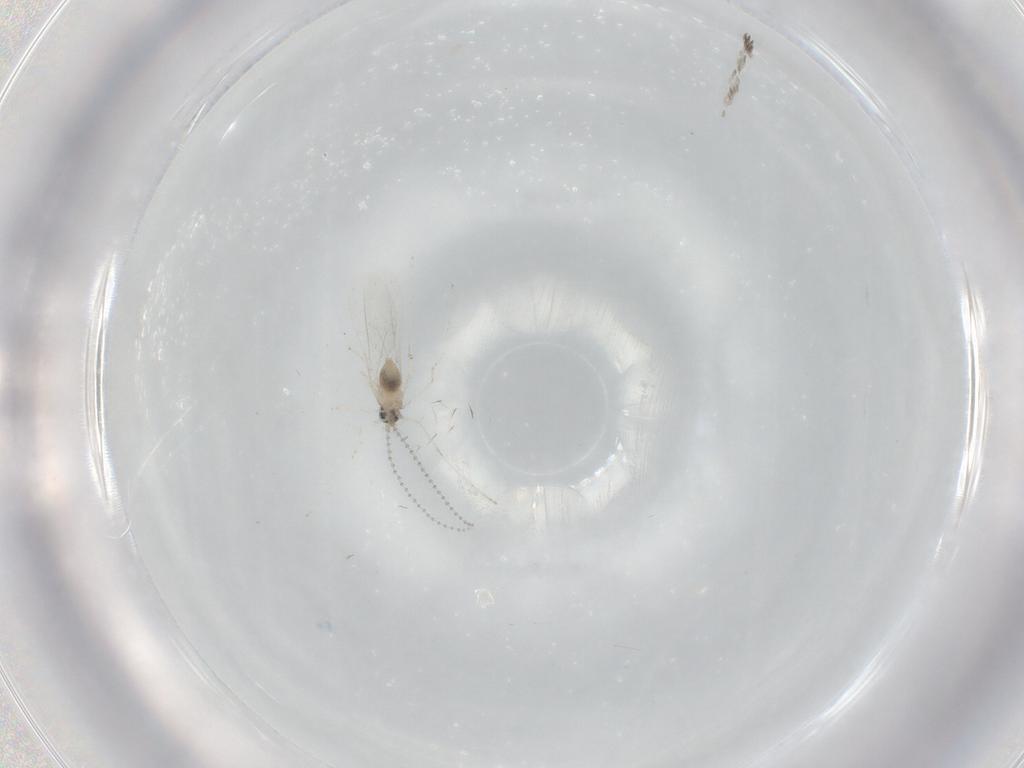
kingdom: Animalia
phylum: Arthropoda
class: Insecta
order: Diptera
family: Cecidomyiidae
